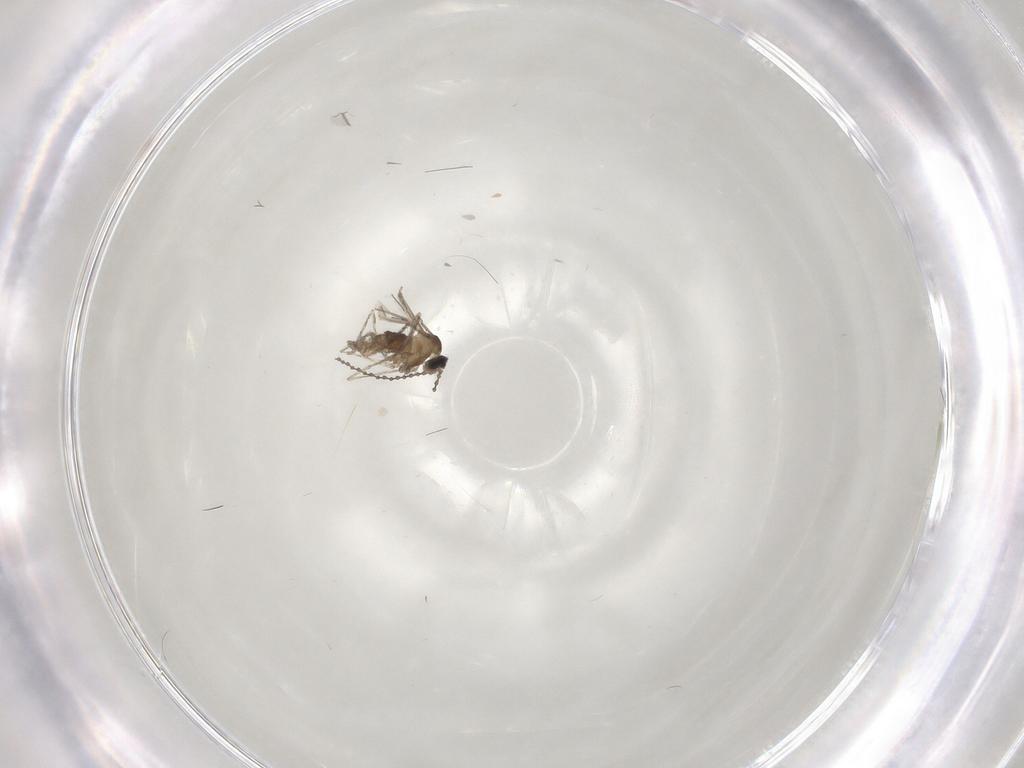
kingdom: Animalia
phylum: Arthropoda
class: Insecta
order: Diptera
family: Cecidomyiidae
